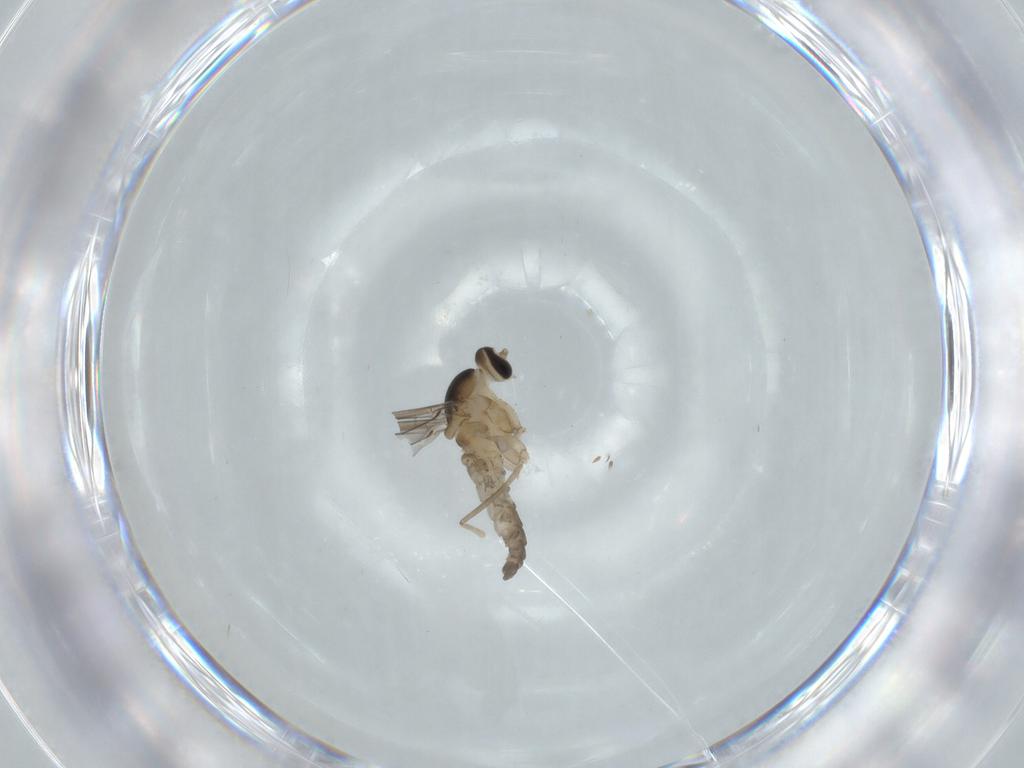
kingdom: Animalia
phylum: Arthropoda
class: Insecta
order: Diptera
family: Cecidomyiidae
